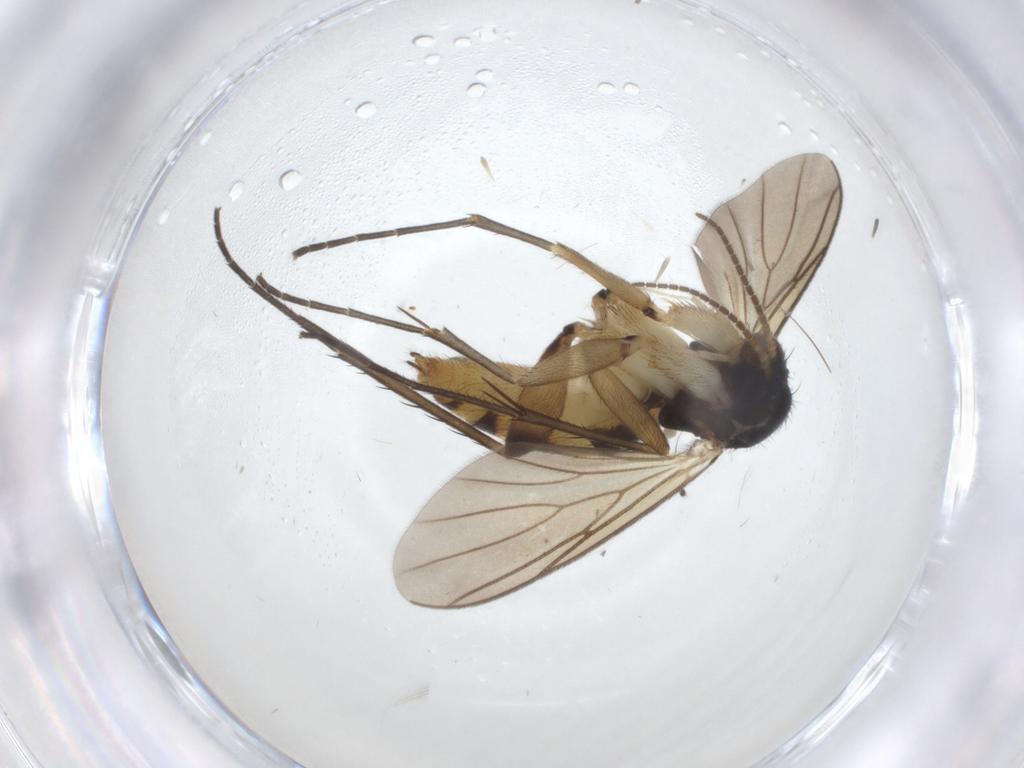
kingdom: Animalia
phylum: Arthropoda
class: Insecta
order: Diptera
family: Mycetophilidae
